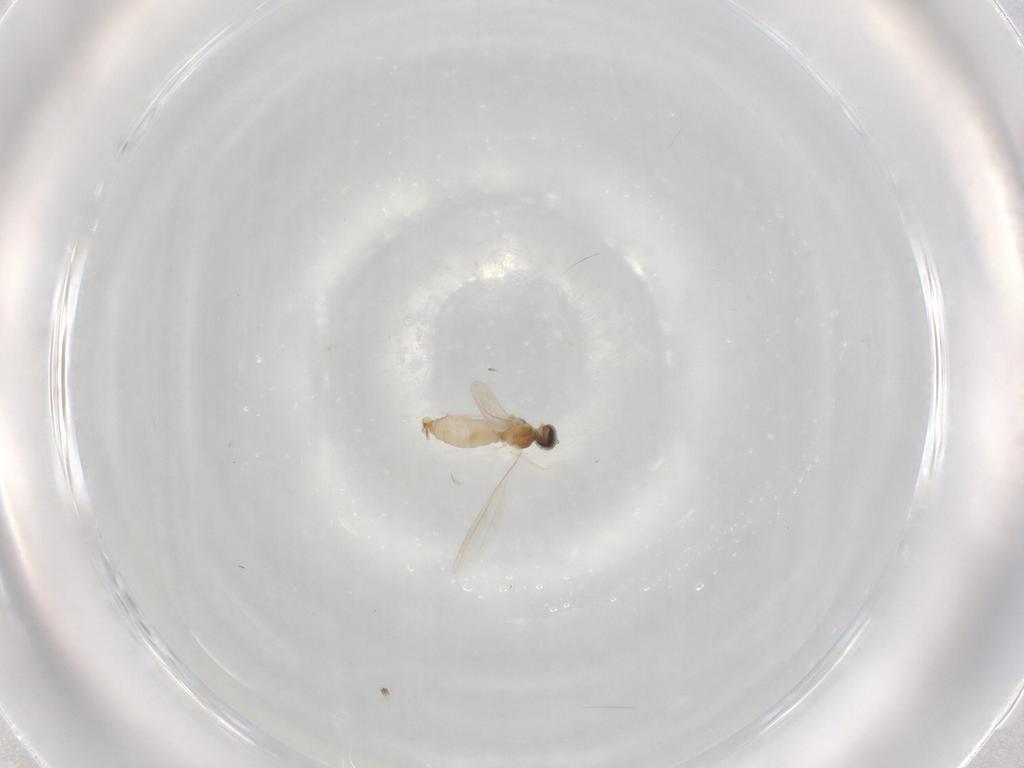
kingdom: Animalia
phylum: Arthropoda
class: Insecta
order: Diptera
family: Cecidomyiidae
